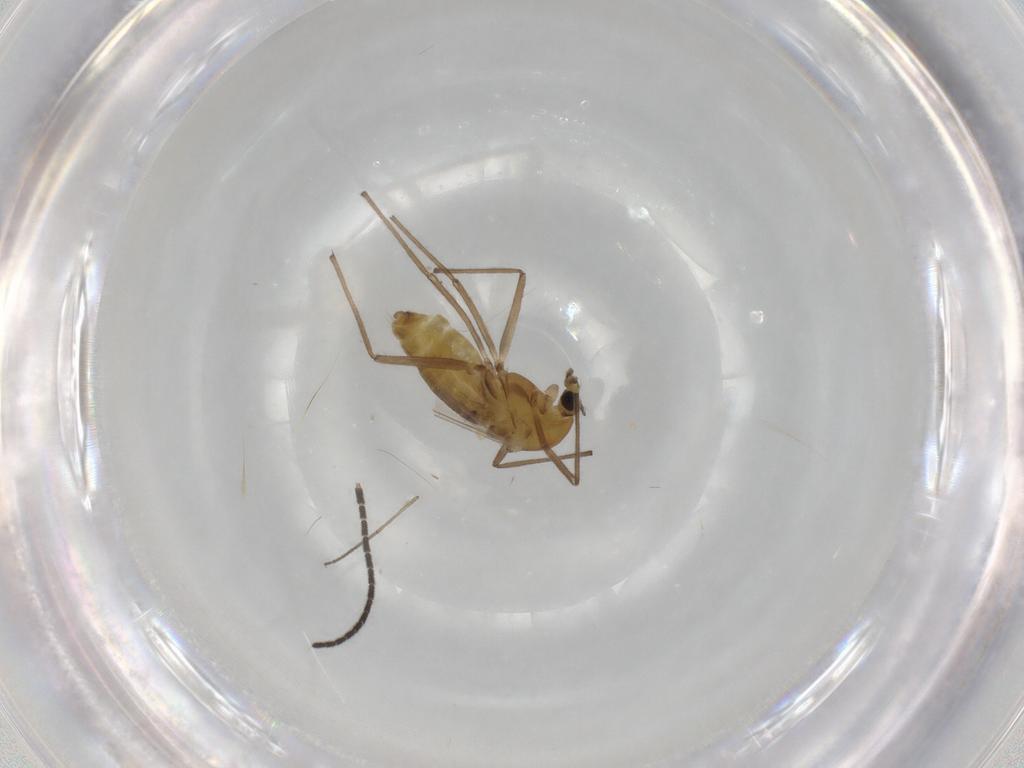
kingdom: Animalia
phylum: Arthropoda
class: Insecta
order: Diptera
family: Chironomidae
